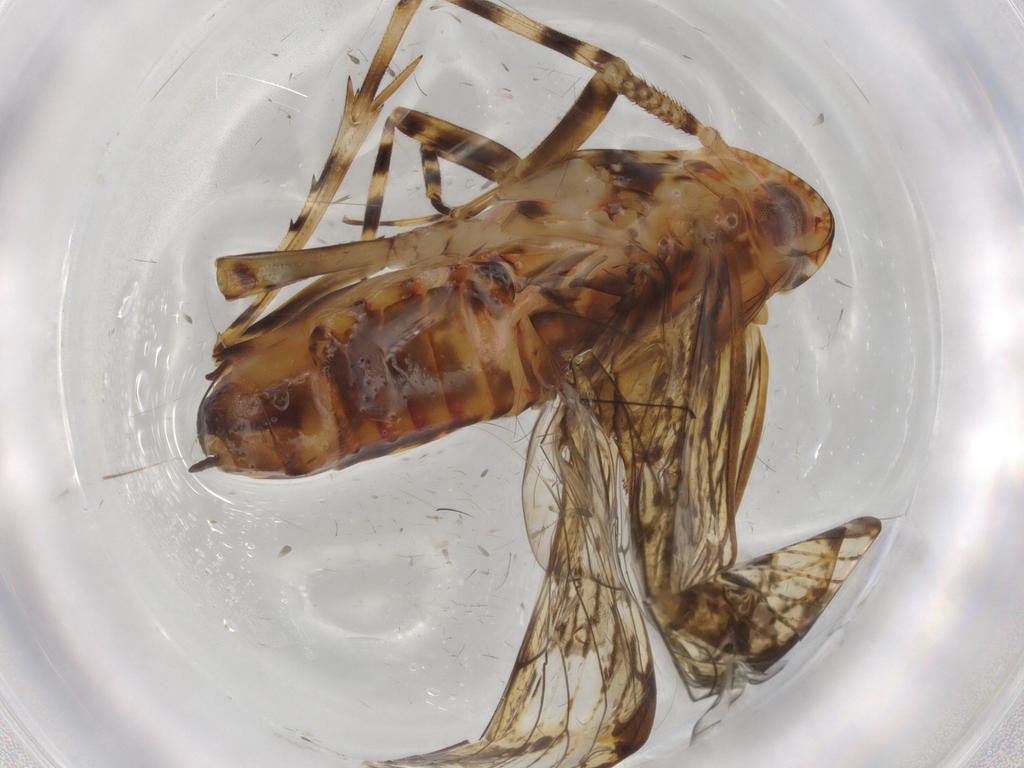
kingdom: Animalia
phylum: Arthropoda
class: Insecta
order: Hemiptera
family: Delphacidae
